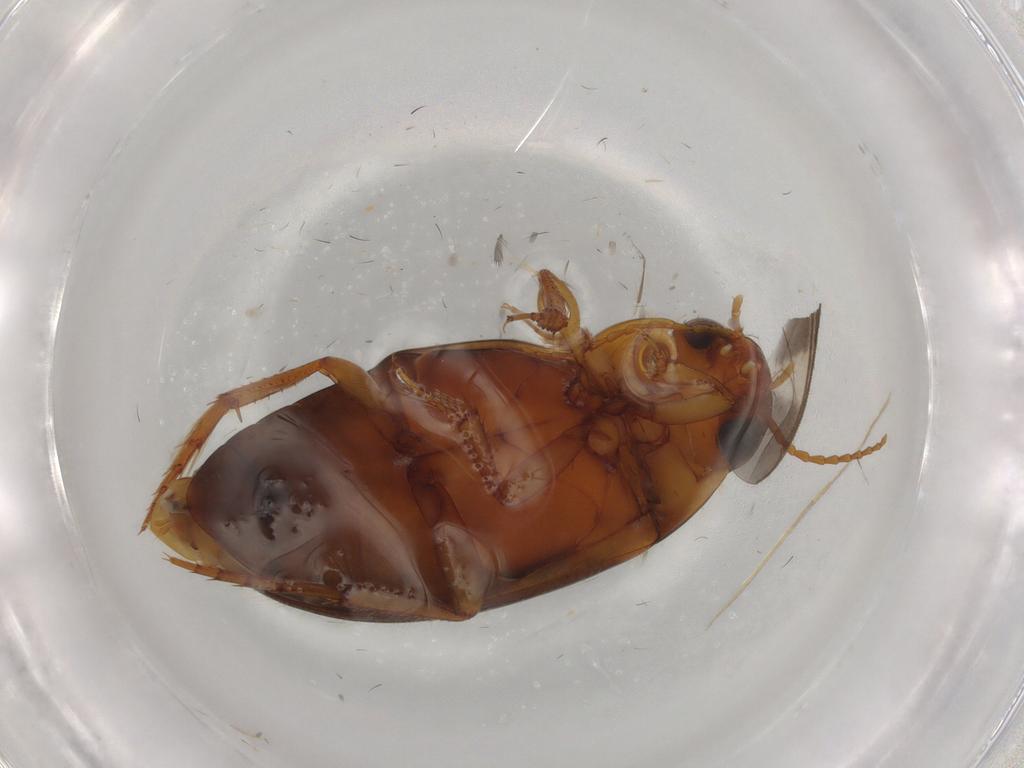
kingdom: Animalia
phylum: Arthropoda
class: Insecta
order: Coleoptera
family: Dytiscidae
